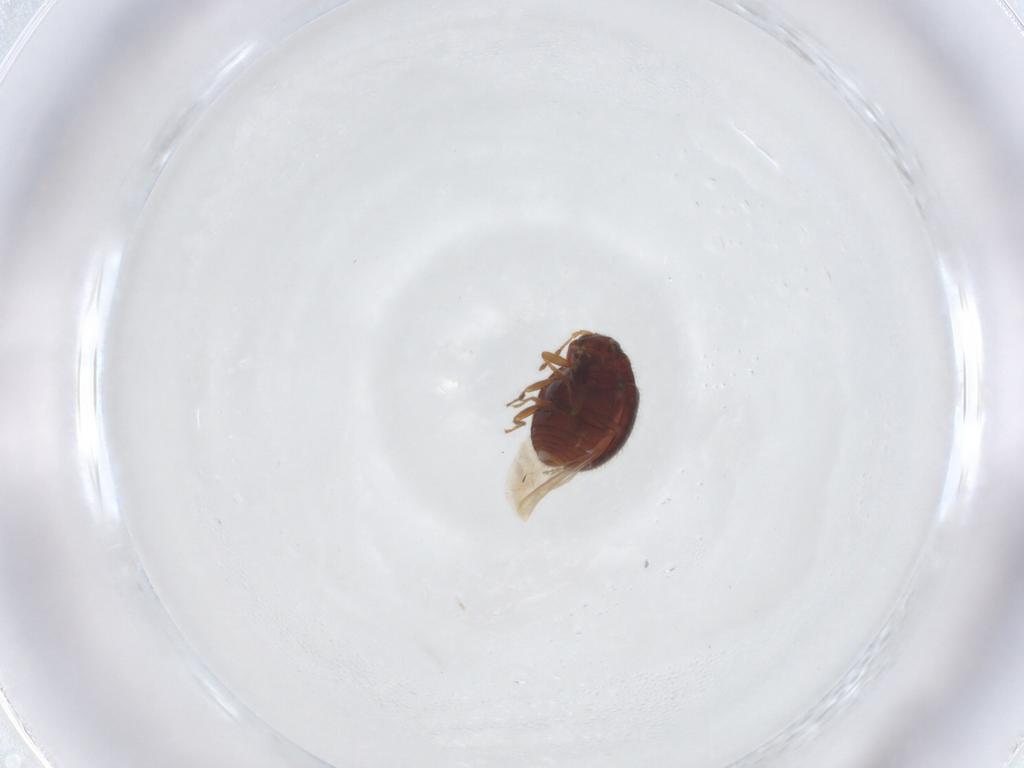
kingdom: Animalia
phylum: Arthropoda
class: Insecta
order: Coleoptera
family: Anamorphidae
